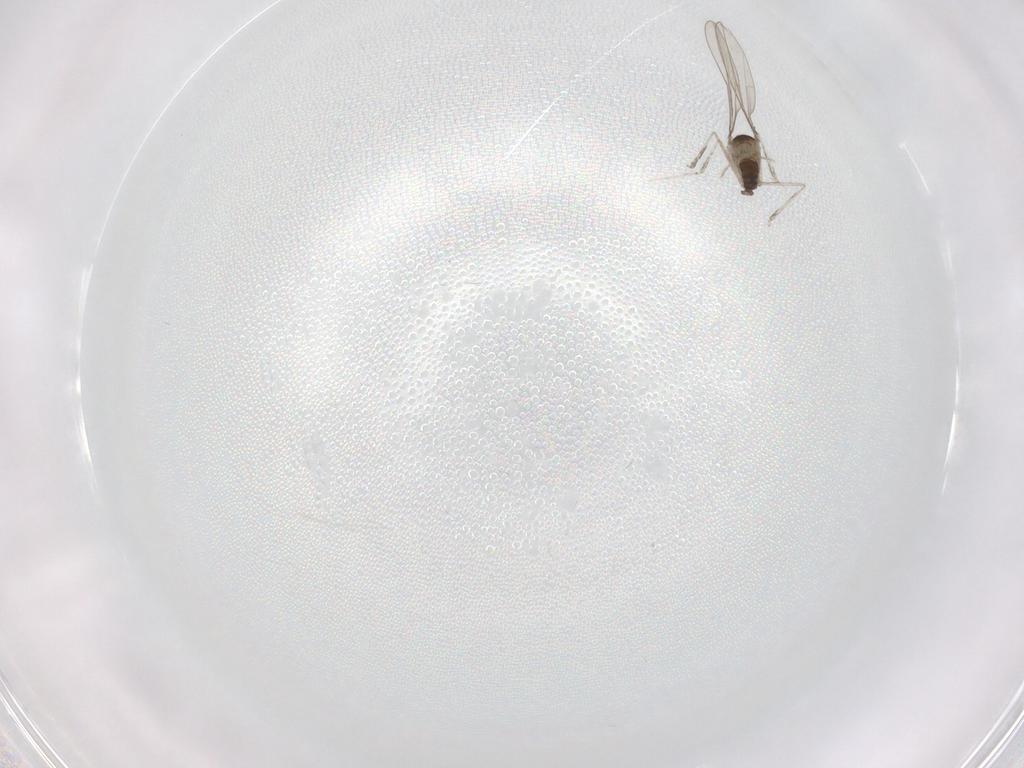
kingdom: Animalia
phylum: Arthropoda
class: Insecta
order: Diptera
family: Cecidomyiidae
